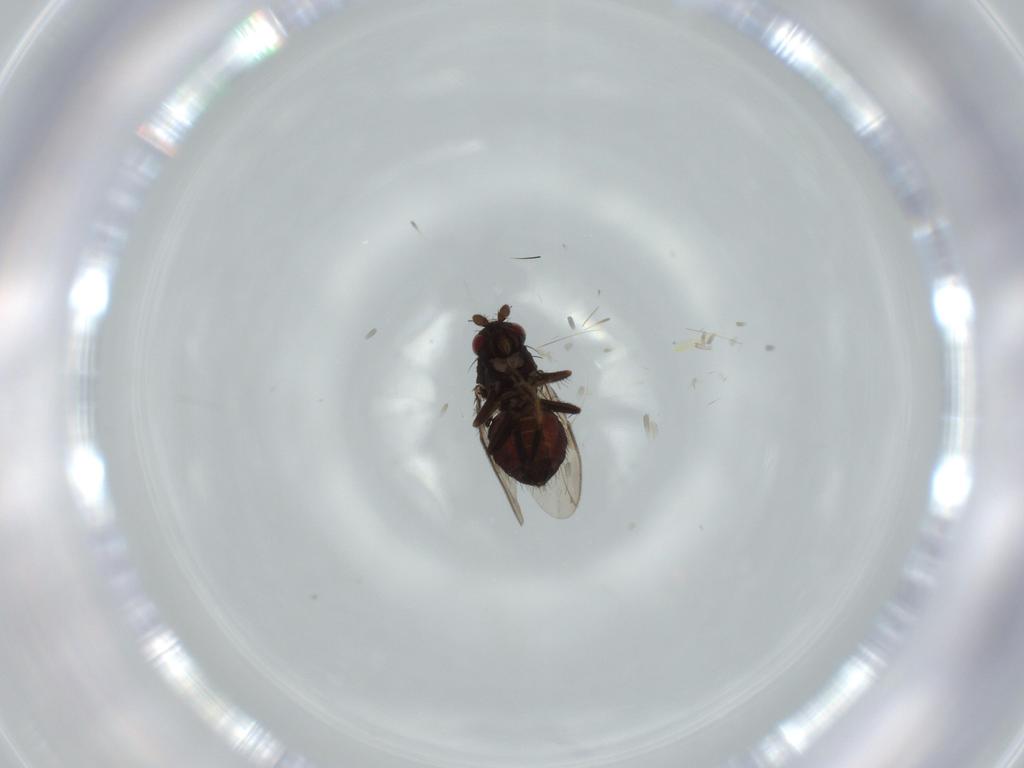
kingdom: Animalia
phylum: Arthropoda
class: Insecta
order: Diptera
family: Sphaeroceridae
